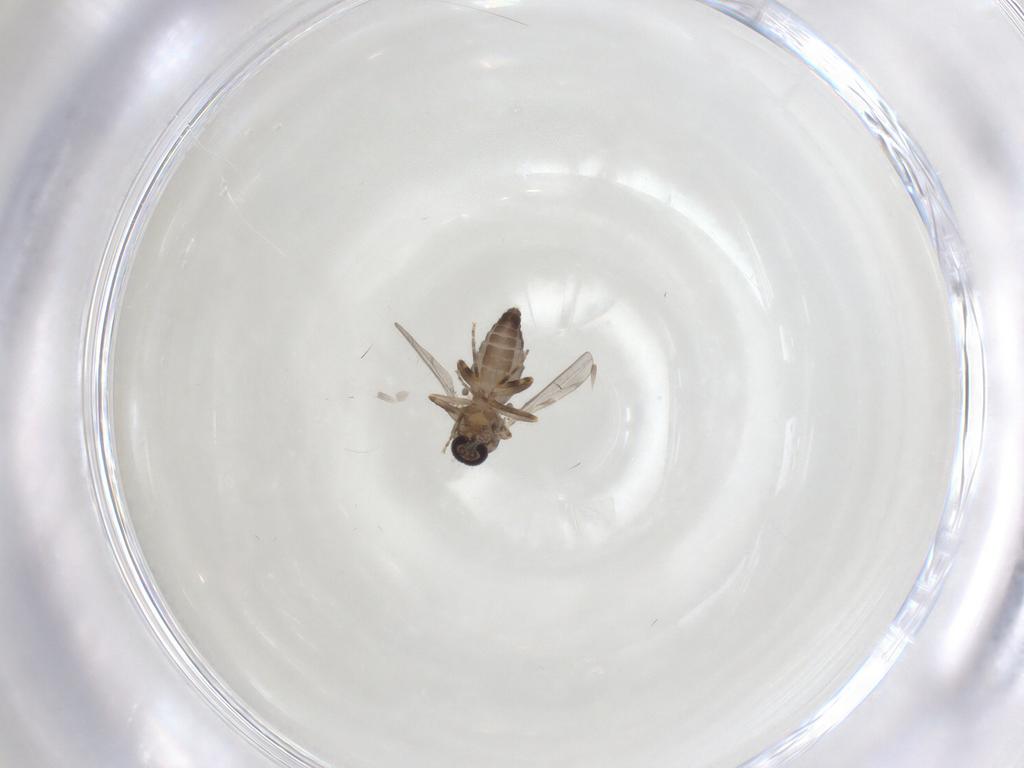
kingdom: Animalia
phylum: Arthropoda
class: Insecta
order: Diptera
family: Ceratopogonidae
